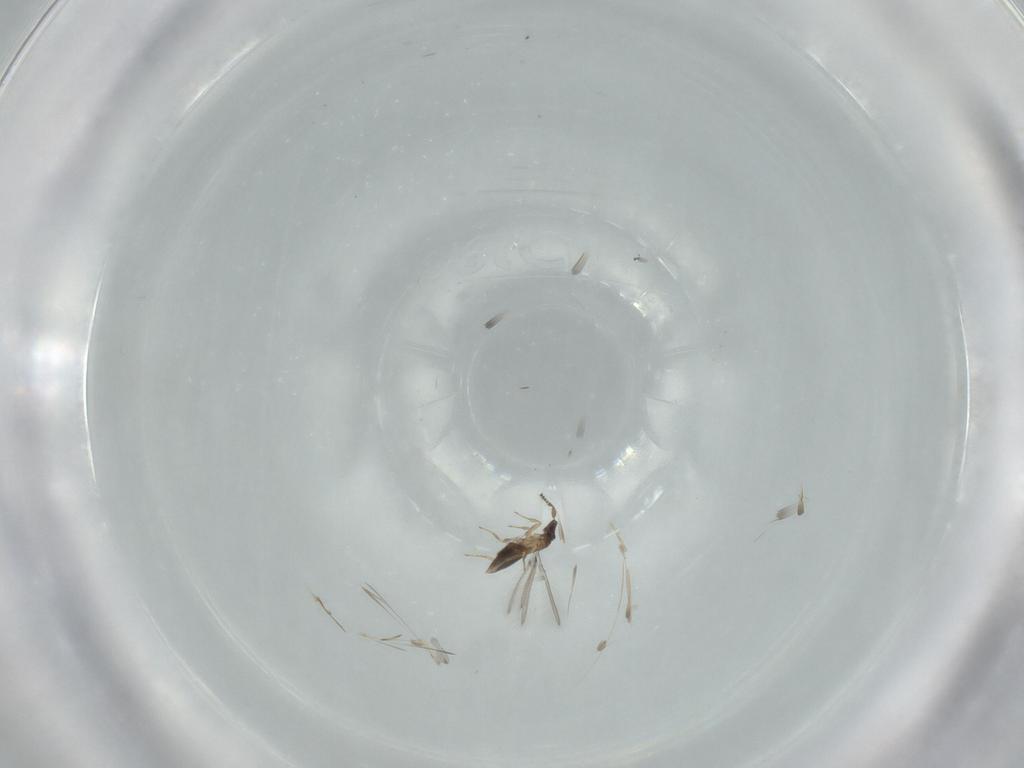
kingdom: Animalia
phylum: Arthropoda
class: Insecta
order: Hymenoptera
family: Mymaridae
